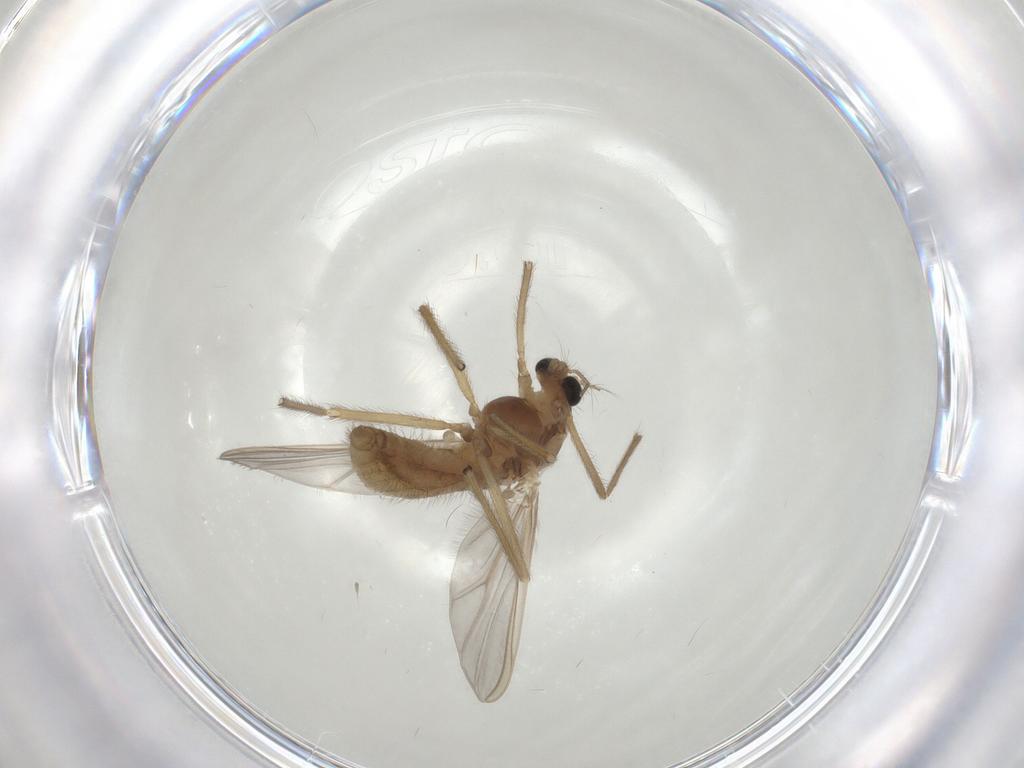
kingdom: Animalia
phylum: Arthropoda
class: Insecta
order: Diptera
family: Chironomidae
